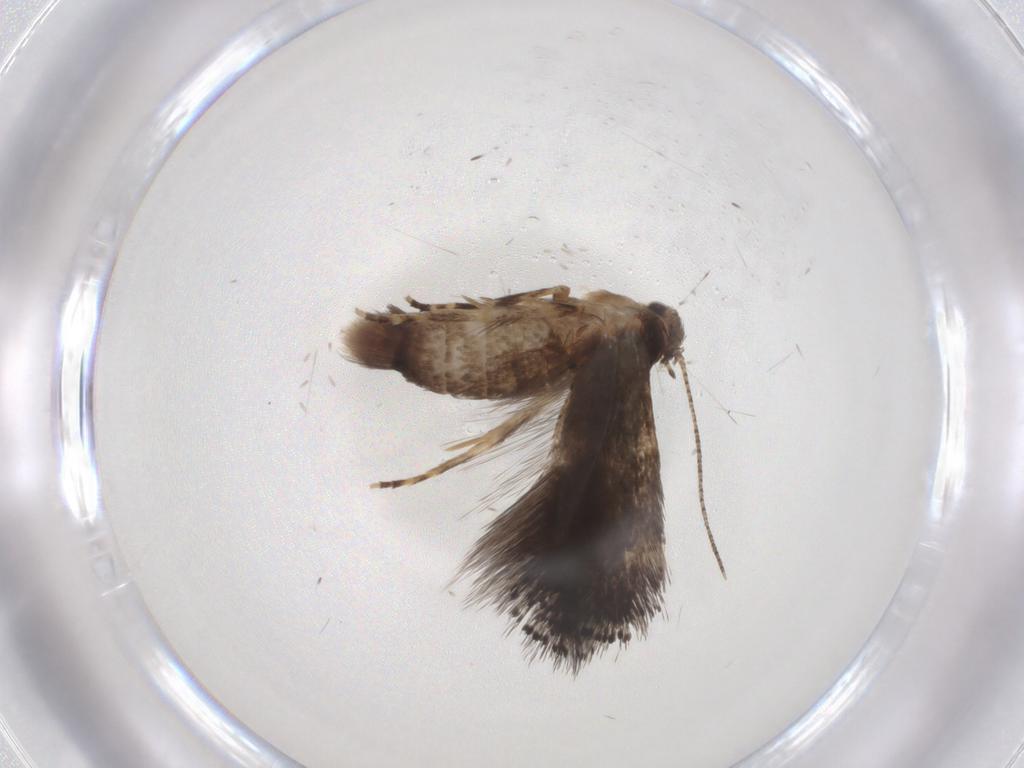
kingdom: Animalia
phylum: Arthropoda
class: Insecta
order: Lepidoptera
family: Elachistidae
